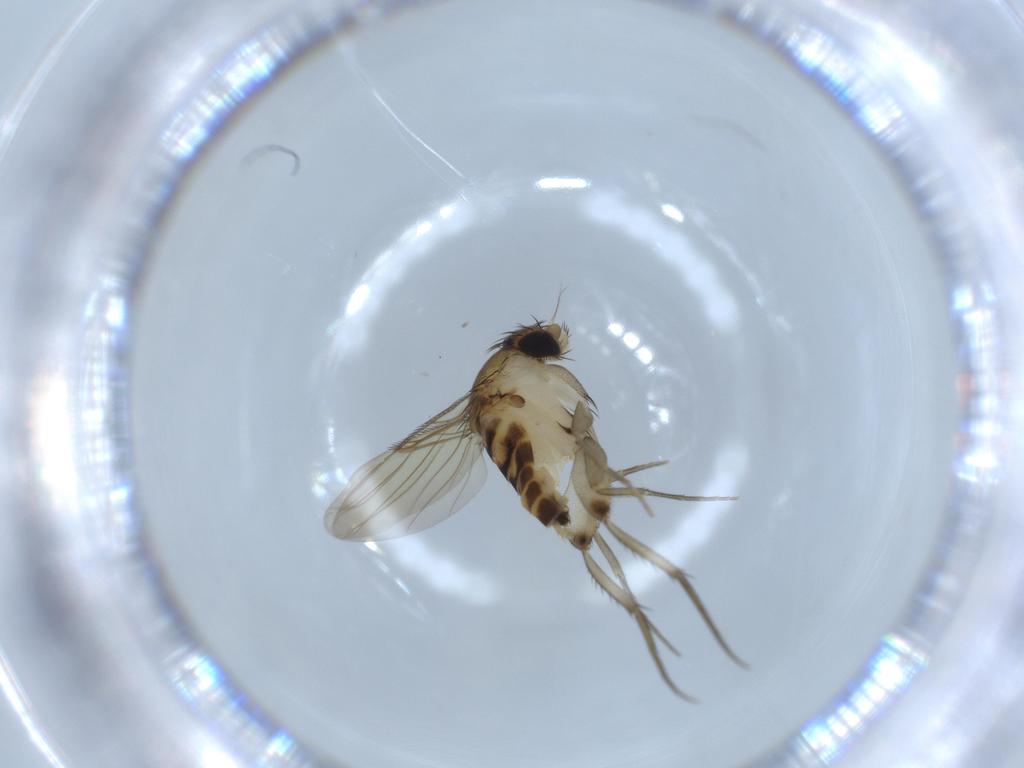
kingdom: Animalia
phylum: Arthropoda
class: Insecta
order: Diptera
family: Phoridae
